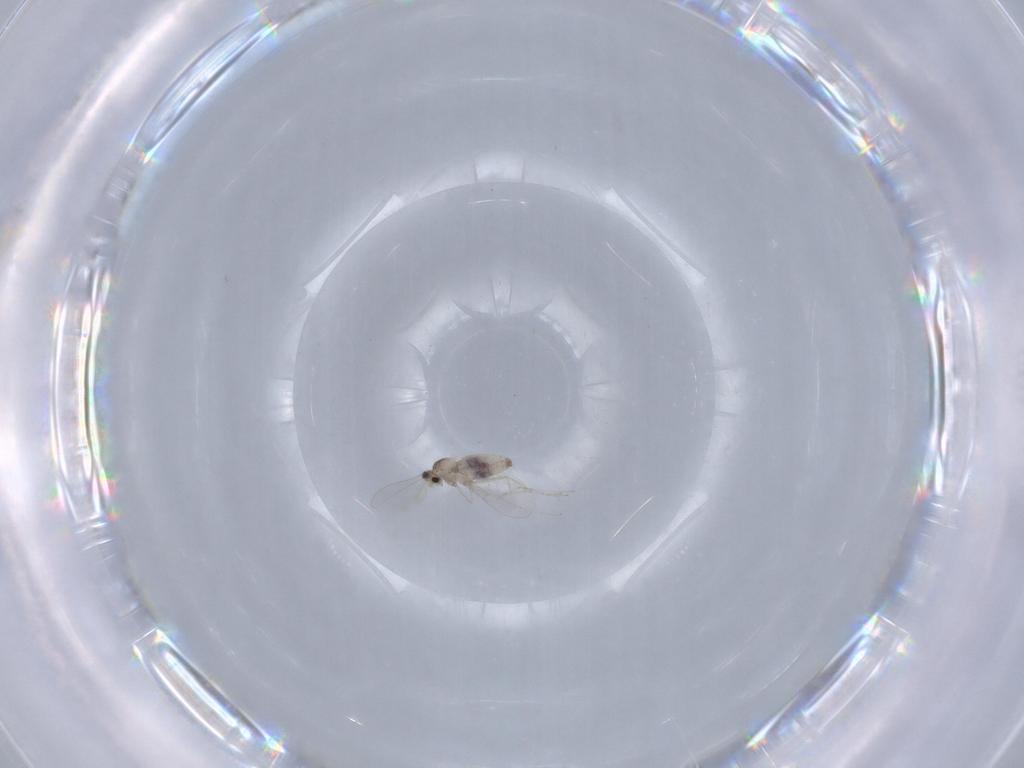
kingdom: Animalia
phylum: Arthropoda
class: Insecta
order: Diptera
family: Cecidomyiidae
